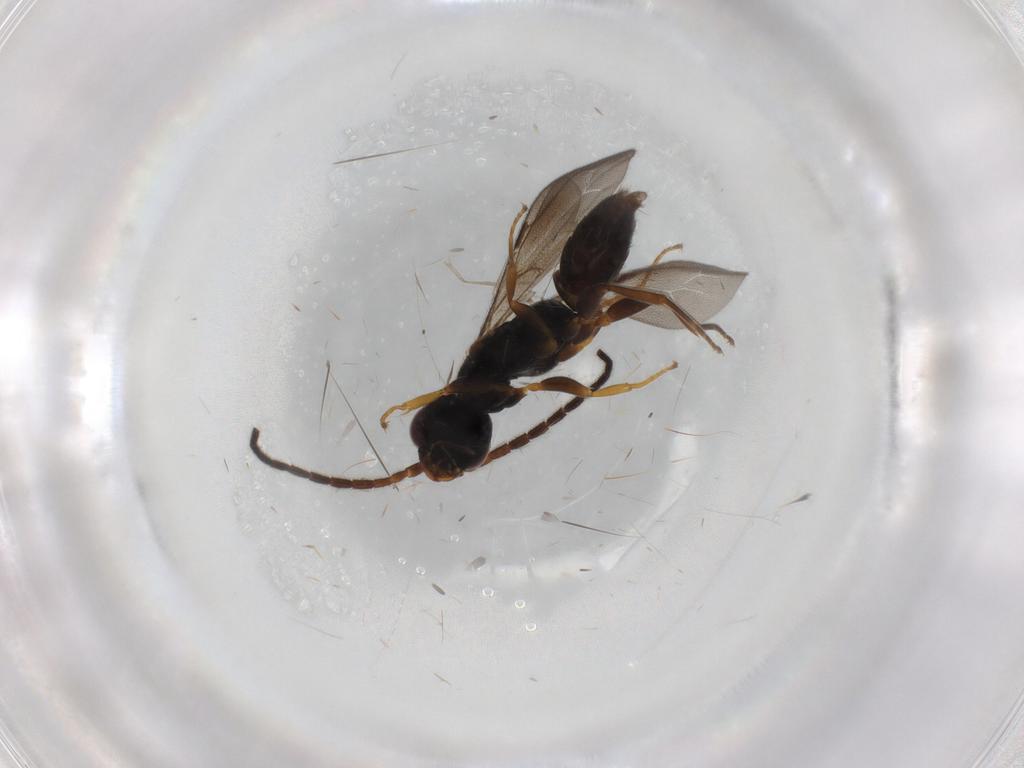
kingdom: Animalia
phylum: Arthropoda
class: Insecta
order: Hymenoptera
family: Bethylidae
